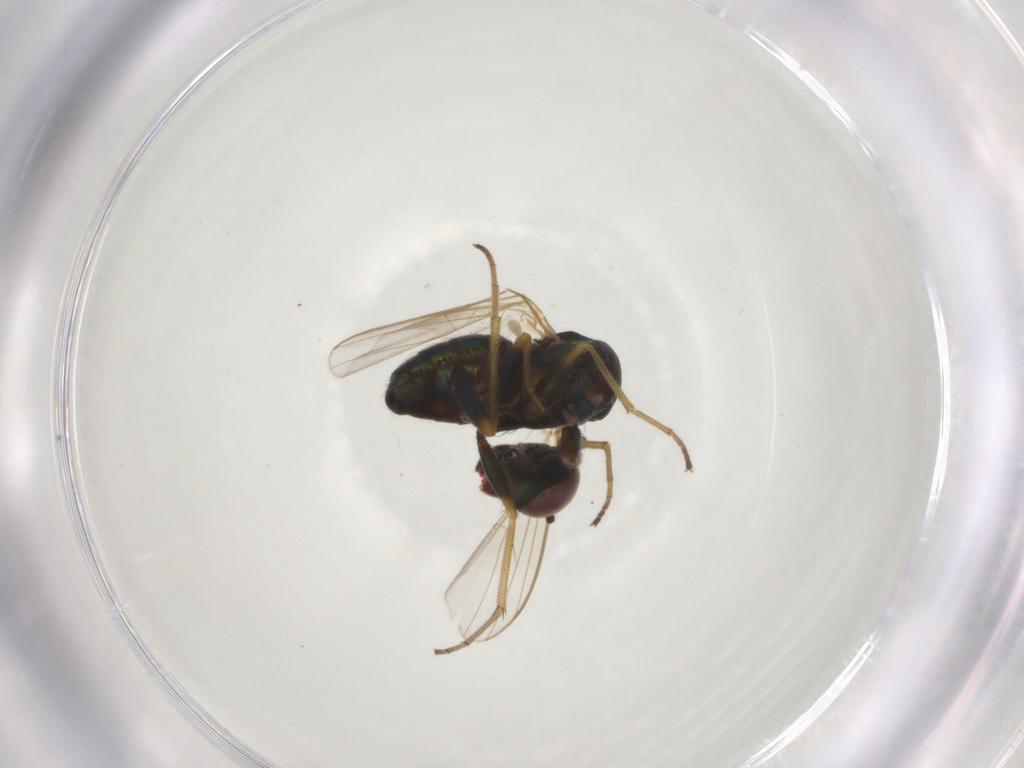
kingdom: Animalia
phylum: Arthropoda
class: Insecta
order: Diptera
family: Dolichopodidae
